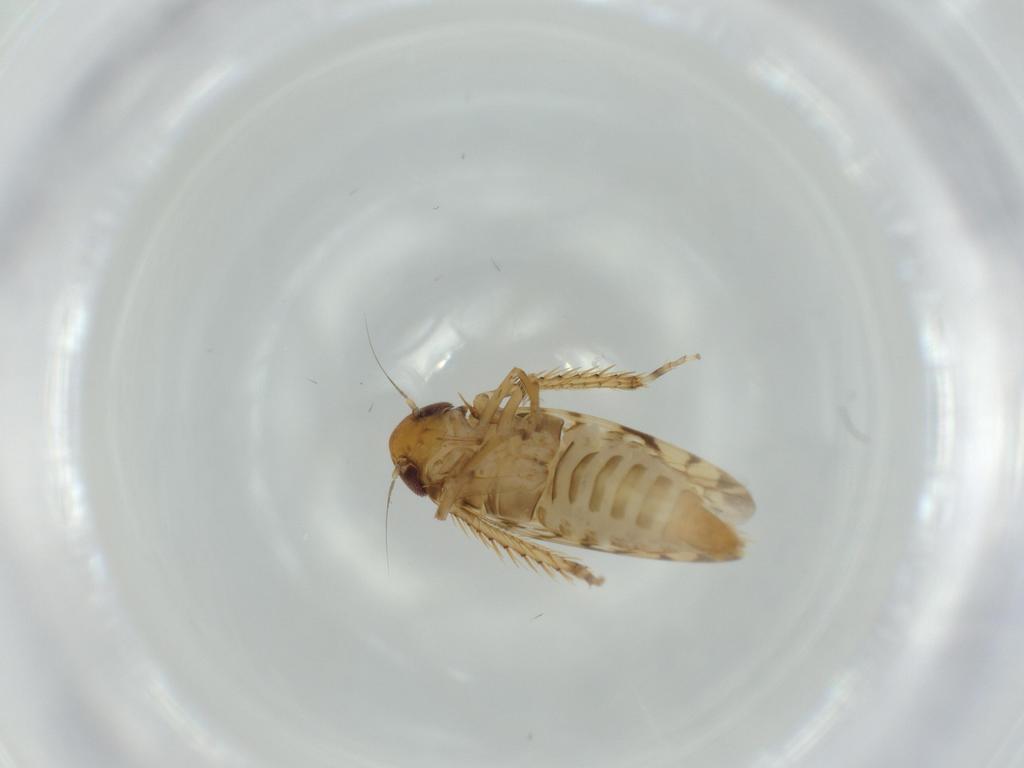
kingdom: Animalia
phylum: Arthropoda
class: Insecta
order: Hemiptera
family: Cicadellidae
